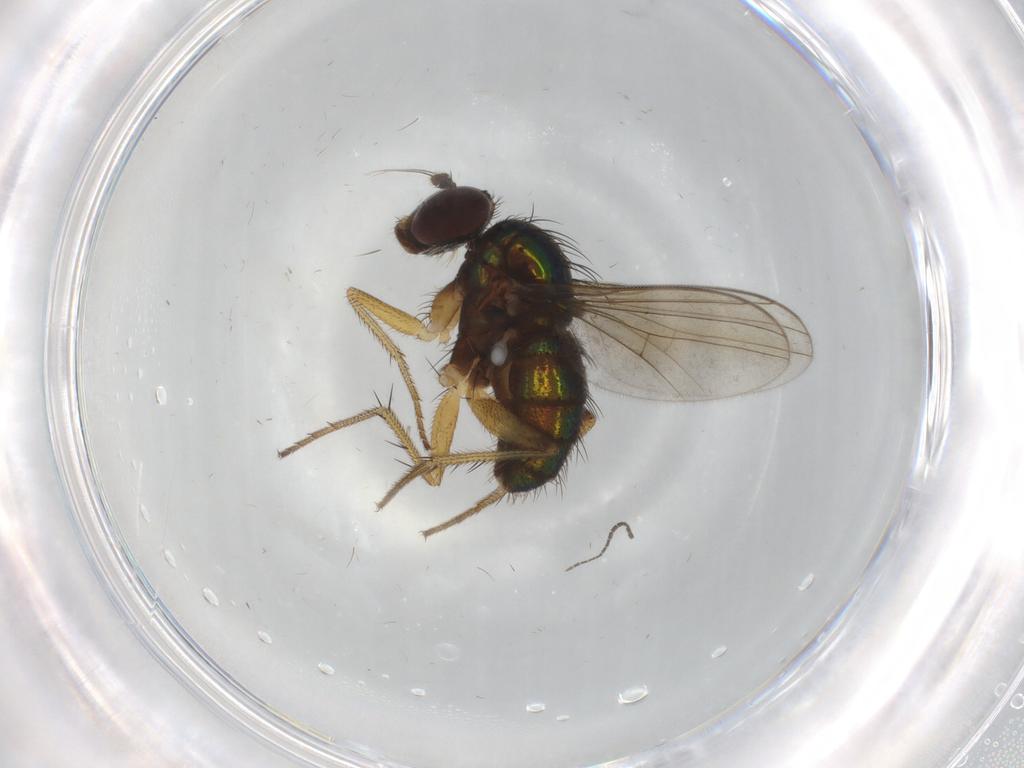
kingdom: Animalia
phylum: Arthropoda
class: Insecta
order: Diptera
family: Dolichopodidae
